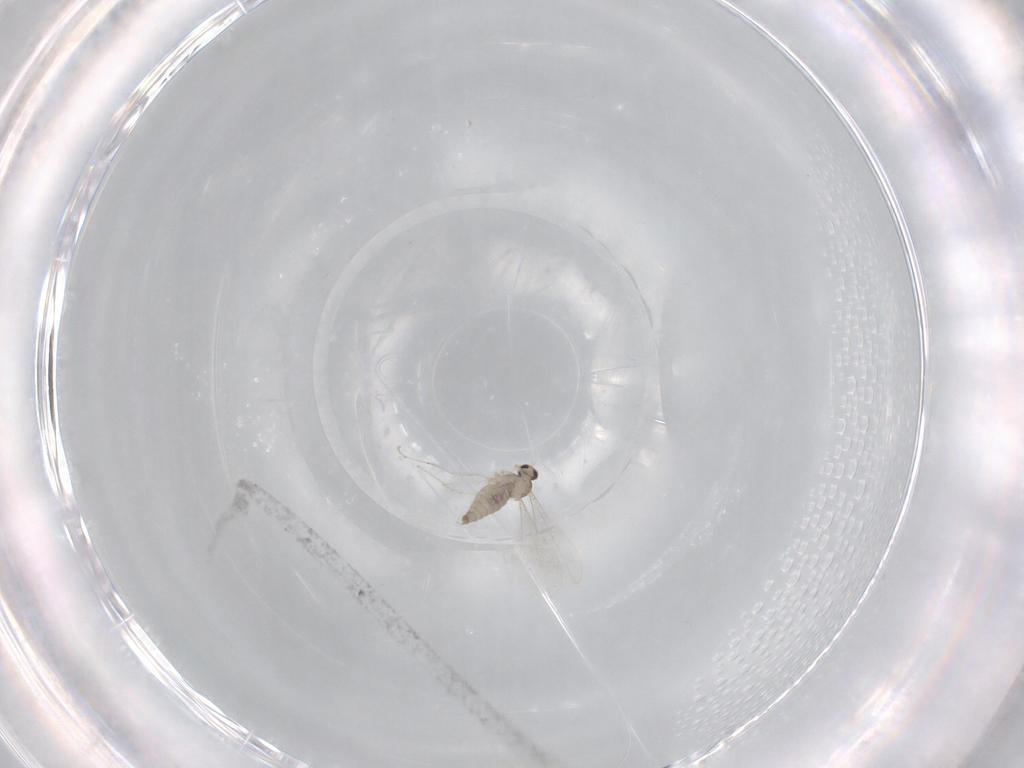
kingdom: Animalia
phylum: Arthropoda
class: Insecta
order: Diptera
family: Cecidomyiidae
